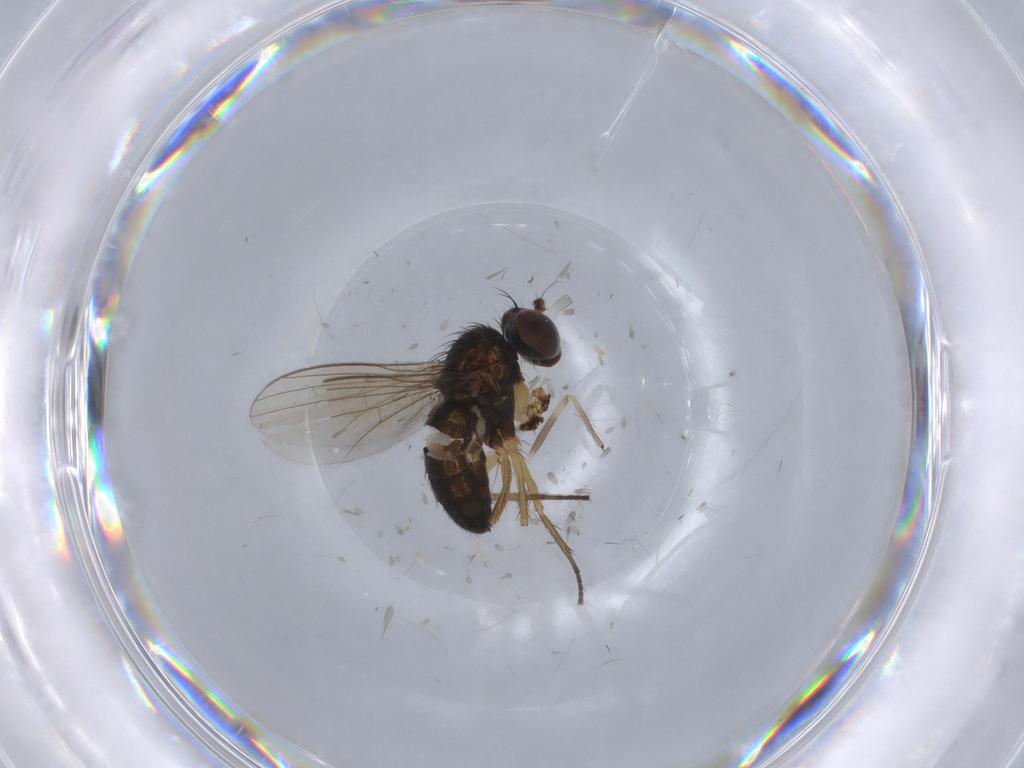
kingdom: Animalia
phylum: Arthropoda
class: Insecta
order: Diptera
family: Chironomidae
